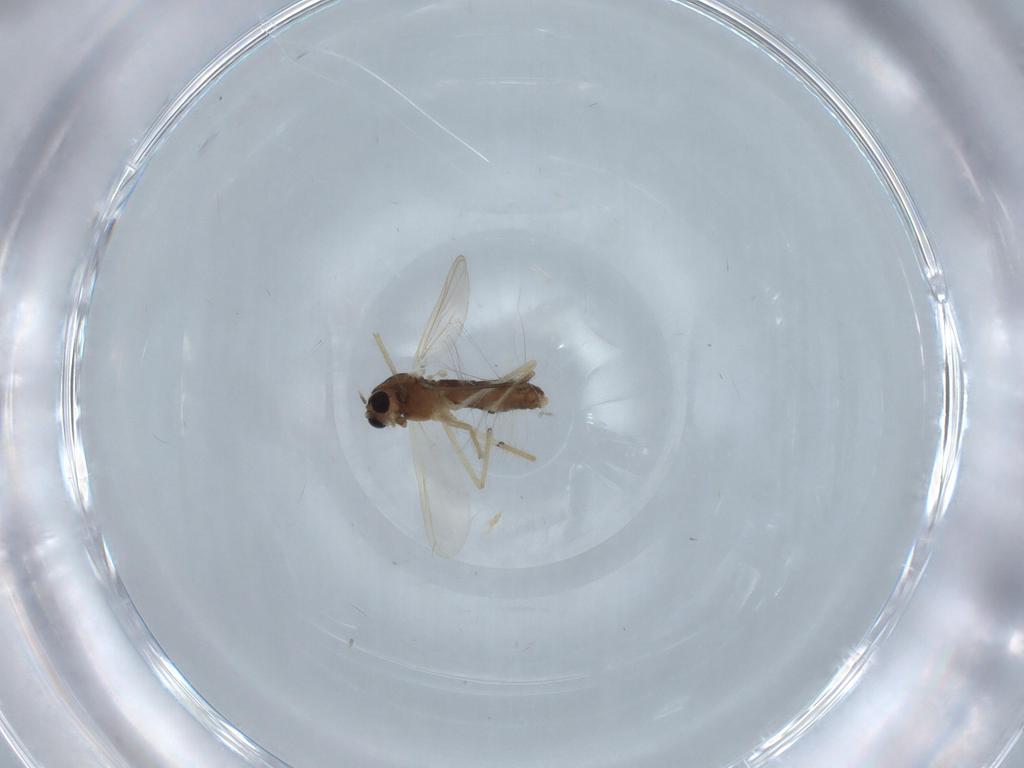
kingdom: Animalia
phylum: Arthropoda
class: Insecta
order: Diptera
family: Chironomidae
